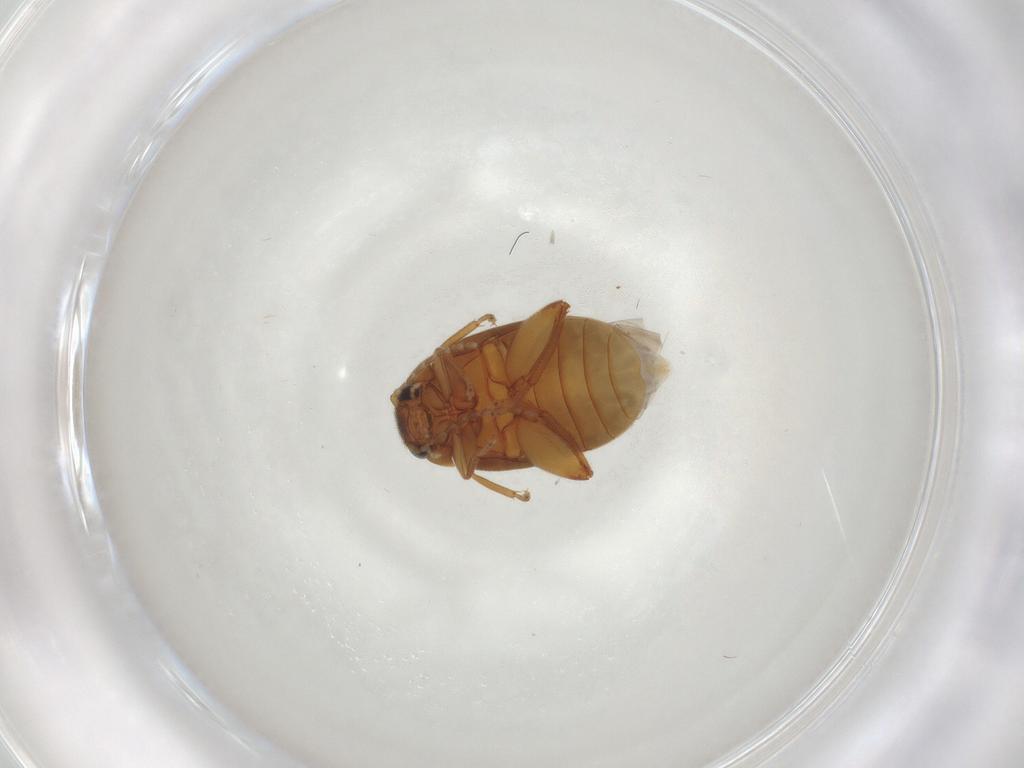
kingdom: Animalia
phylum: Arthropoda
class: Insecta
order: Coleoptera
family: Scirtidae
